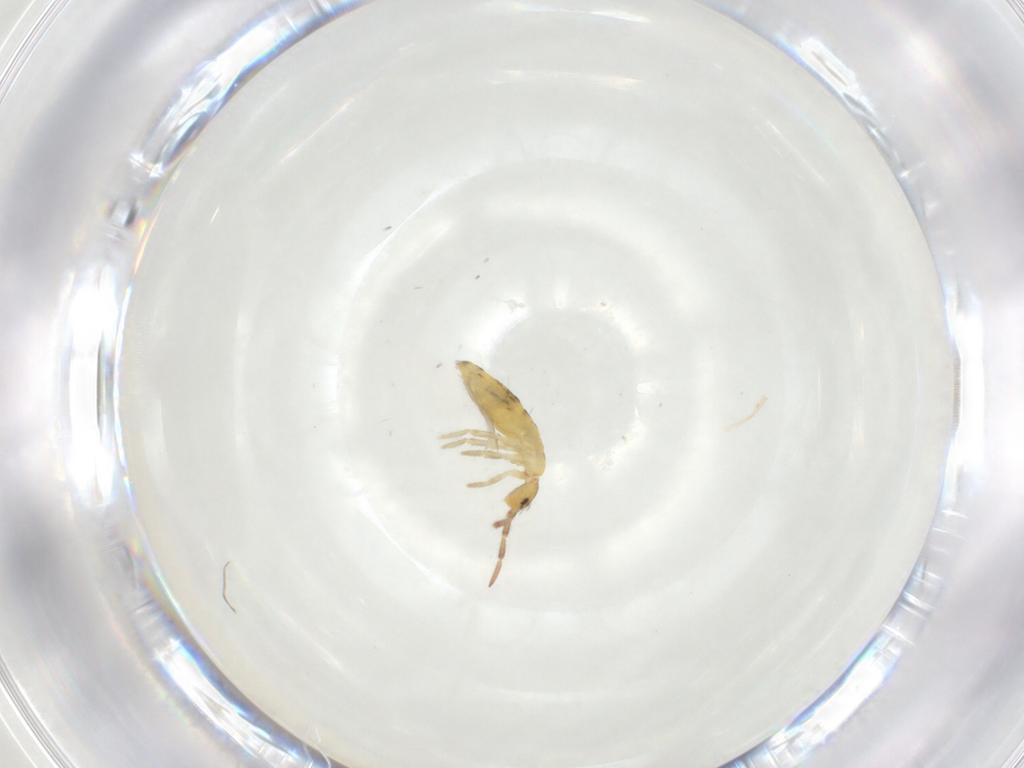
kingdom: Animalia
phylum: Arthropoda
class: Collembola
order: Entomobryomorpha
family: Entomobryidae
